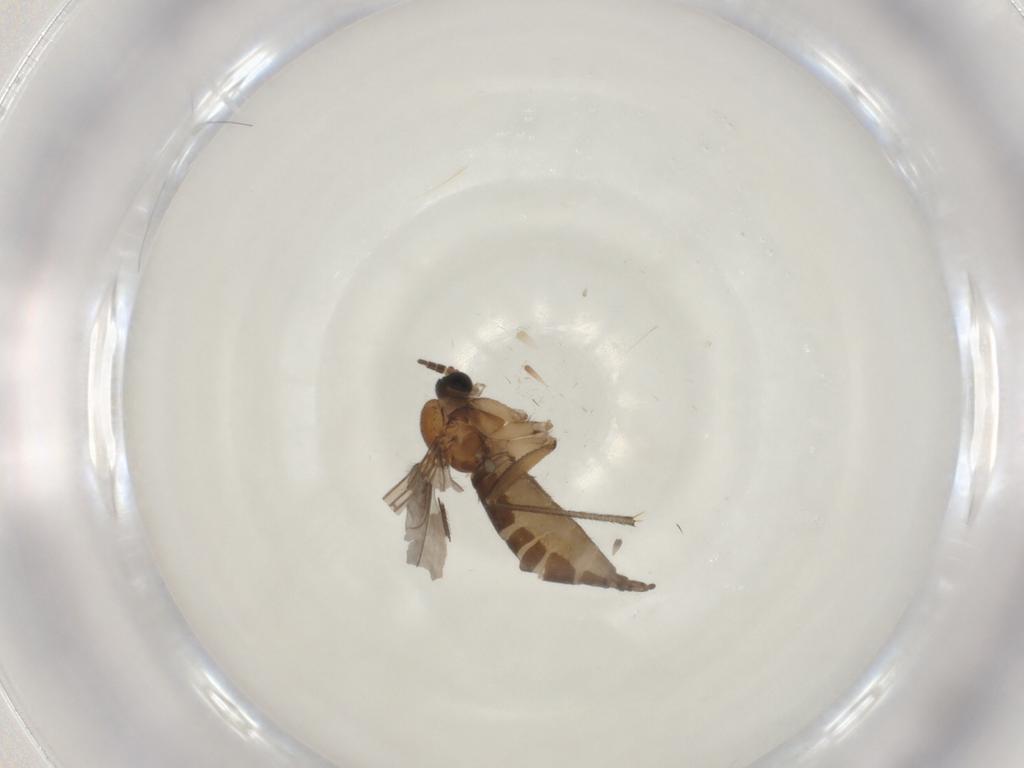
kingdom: Animalia
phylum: Arthropoda
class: Insecta
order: Diptera
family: Sciaridae
